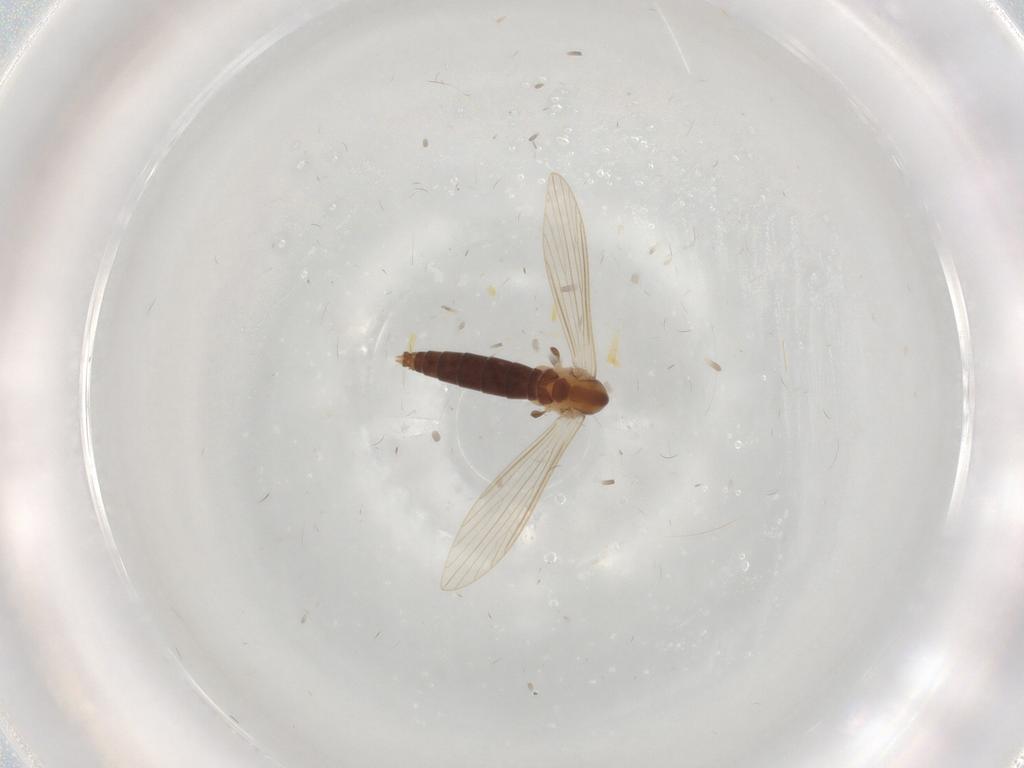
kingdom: Animalia
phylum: Arthropoda
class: Insecta
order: Diptera
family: Psychodidae
